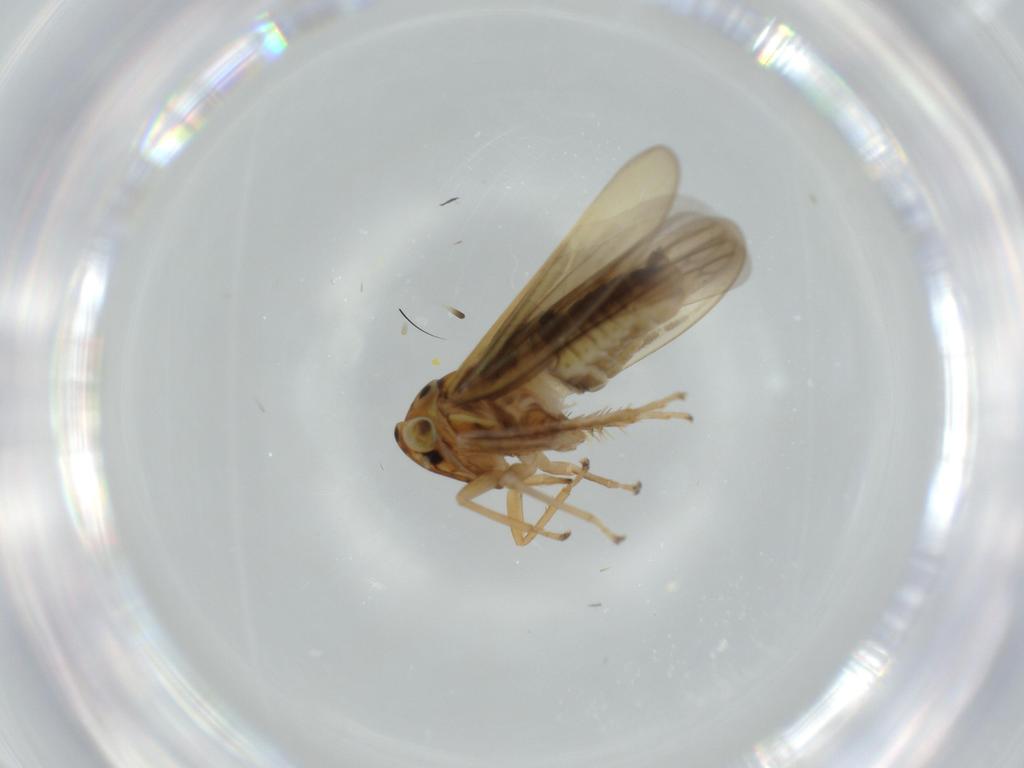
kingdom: Animalia
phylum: Arthropoda
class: Insecta
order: Hemiptera
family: Cicadellidae
